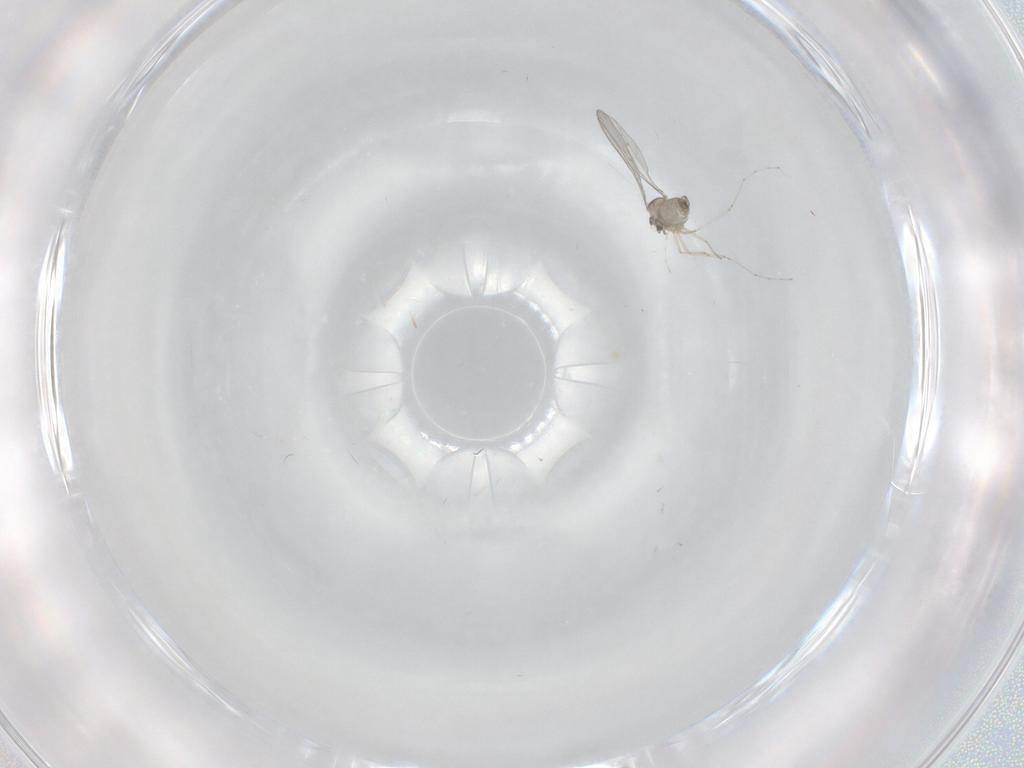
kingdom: Animalia
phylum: Arthropoda
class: Insecta
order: Diptera
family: Cecidomyiidae
